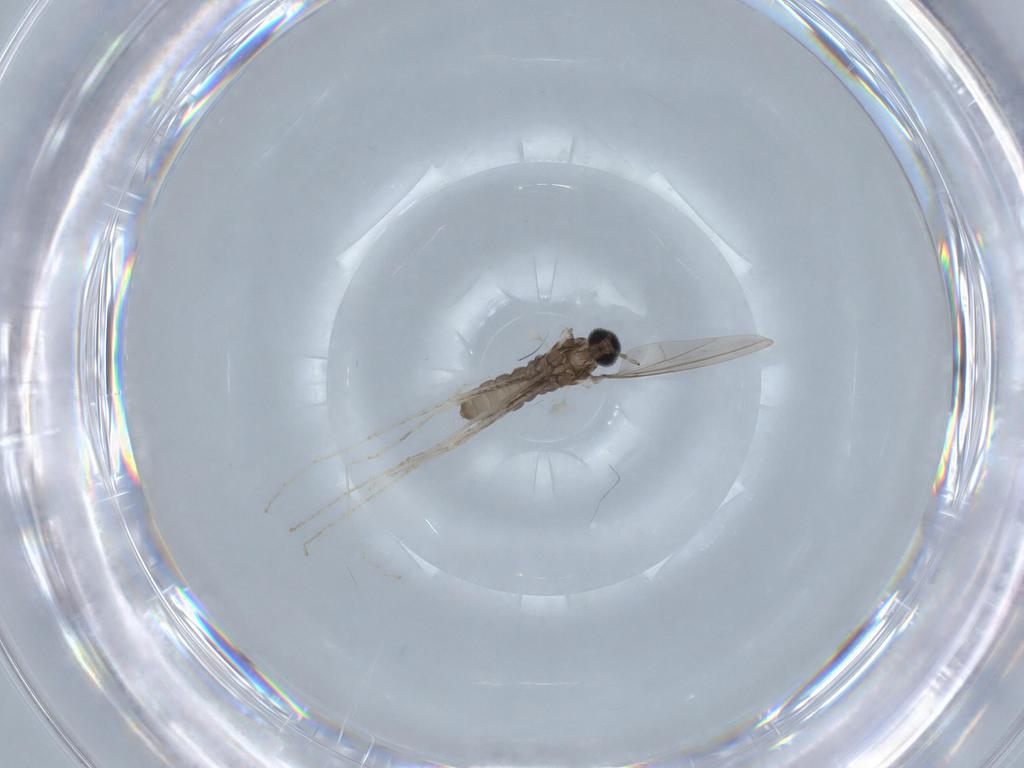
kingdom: Animalia
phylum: Arthropoda
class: Insecta
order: Diptera
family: Cecidomyiidae
